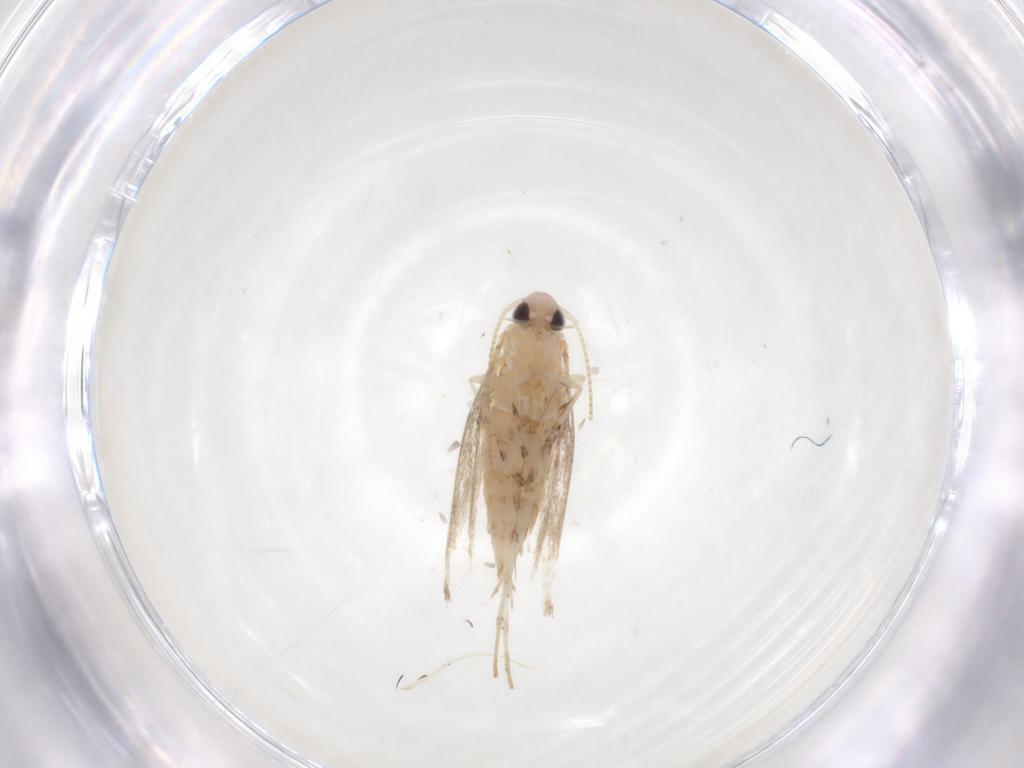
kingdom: Animalia
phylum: Arthropoda
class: Insecta
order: Lepidoptera
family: Gracillariidae
